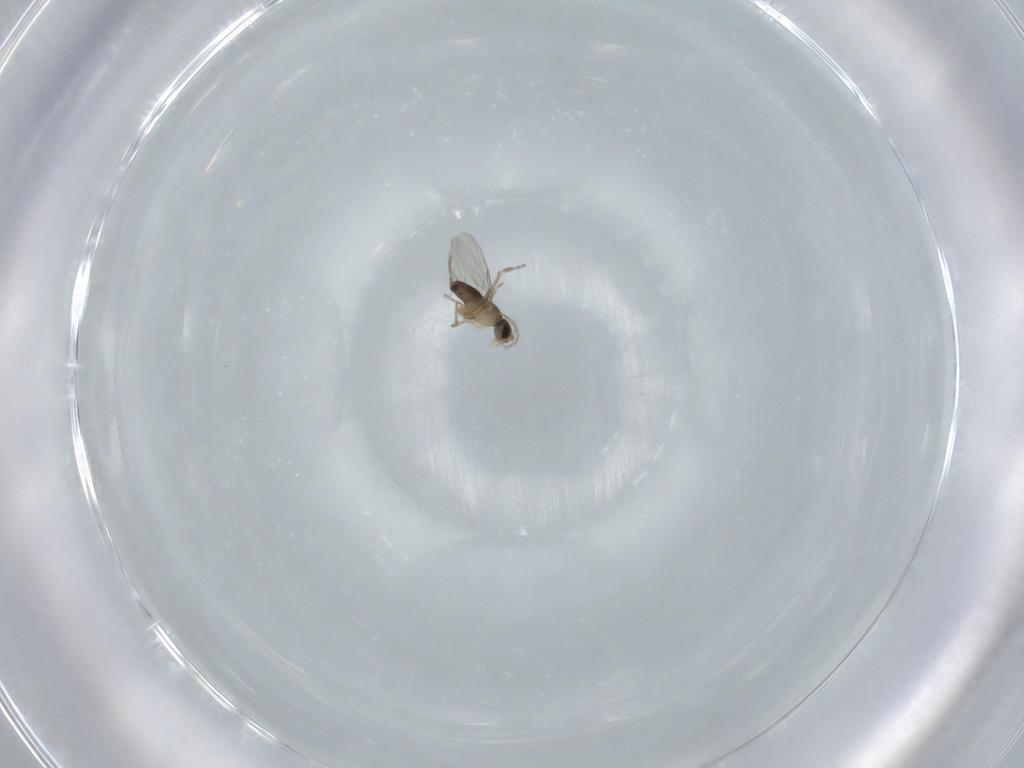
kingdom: Animalia
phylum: Arthropoda
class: Insecta
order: Diptera
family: Phoridae
